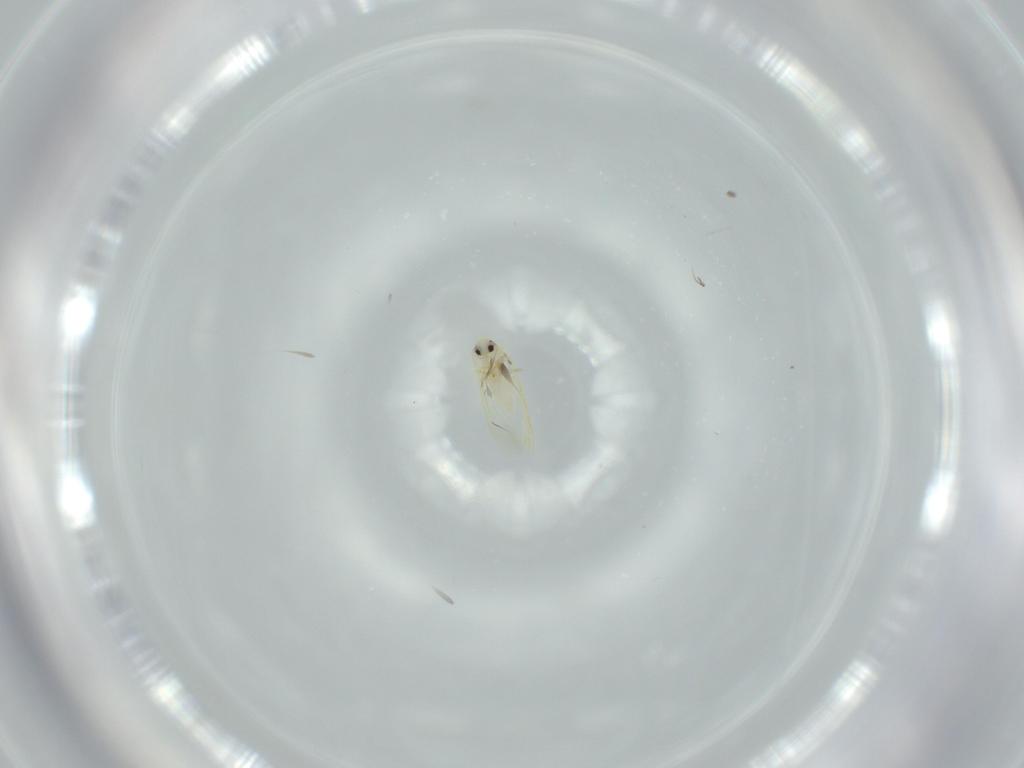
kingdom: Animalia
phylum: Arthropoda
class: Insecta
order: Hemiptera
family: Aleyrodidae
